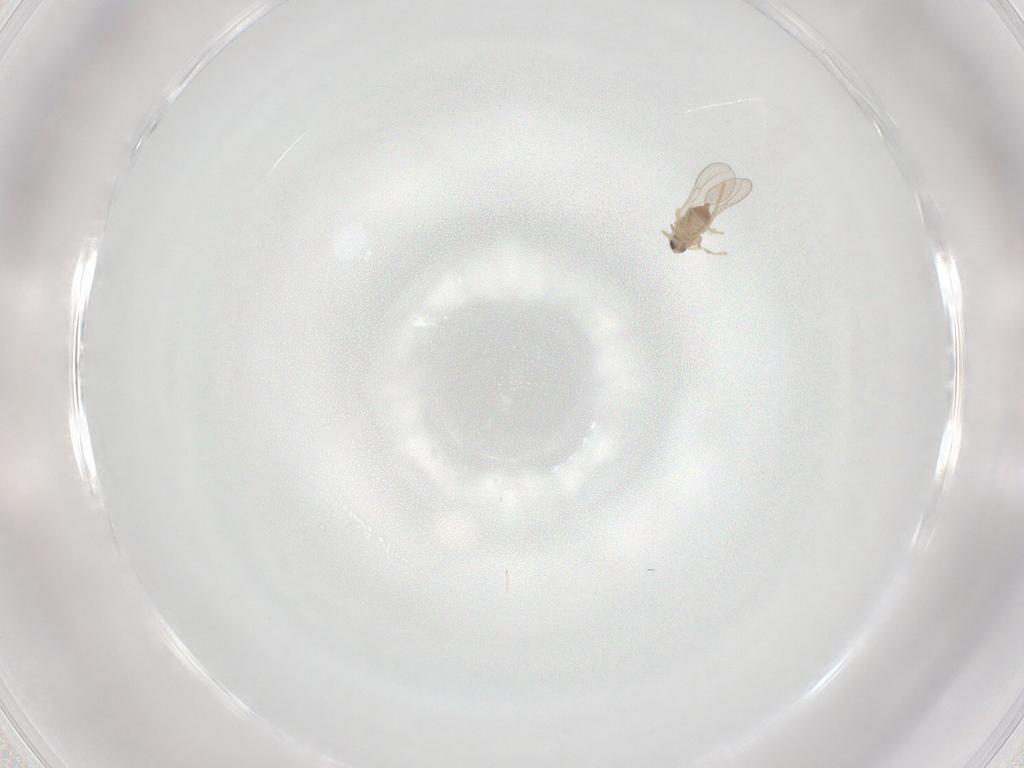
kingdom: Animalia
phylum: Arthropoda
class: Insecta
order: Diptera
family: Cecidomyiidae
